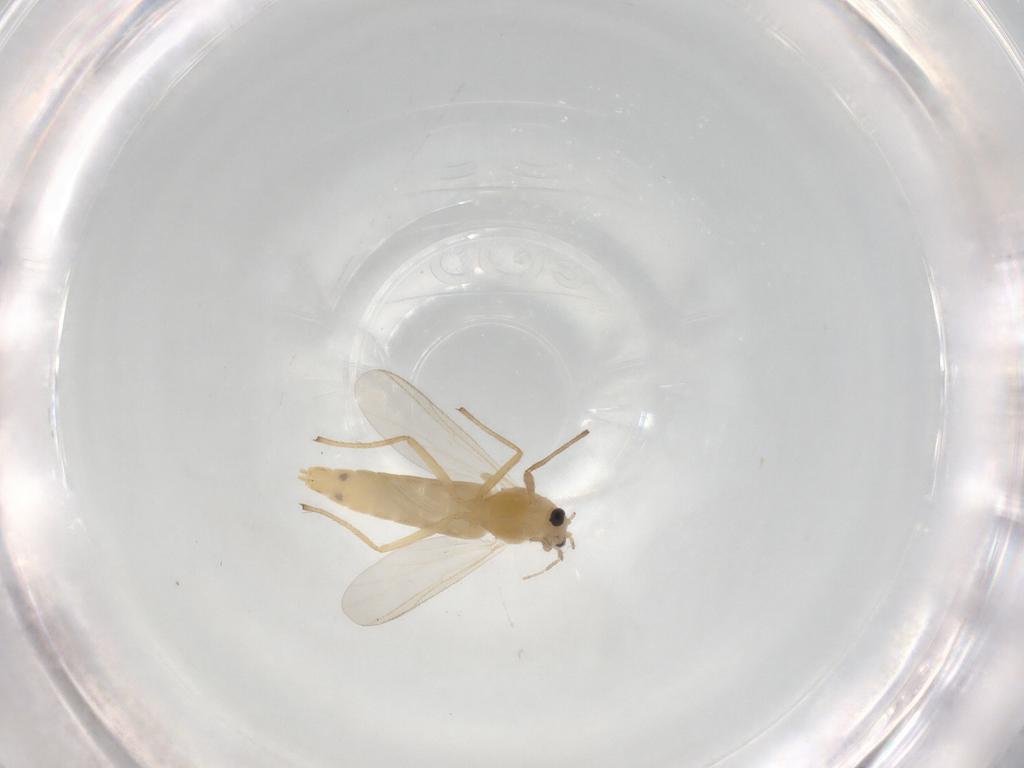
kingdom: Animalia
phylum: Arthropoda
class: Insecta
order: Diptera
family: Chironomidae
